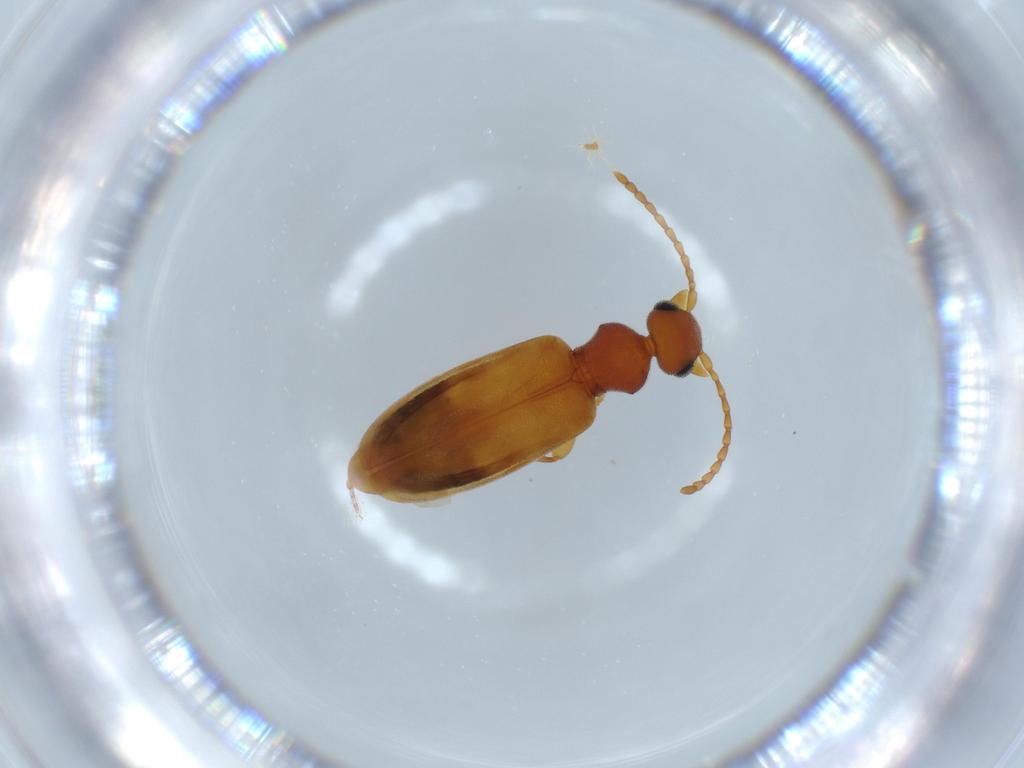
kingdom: Animalia
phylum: Arthropoda
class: Insecta
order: Coleoptera
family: Anthicidae
